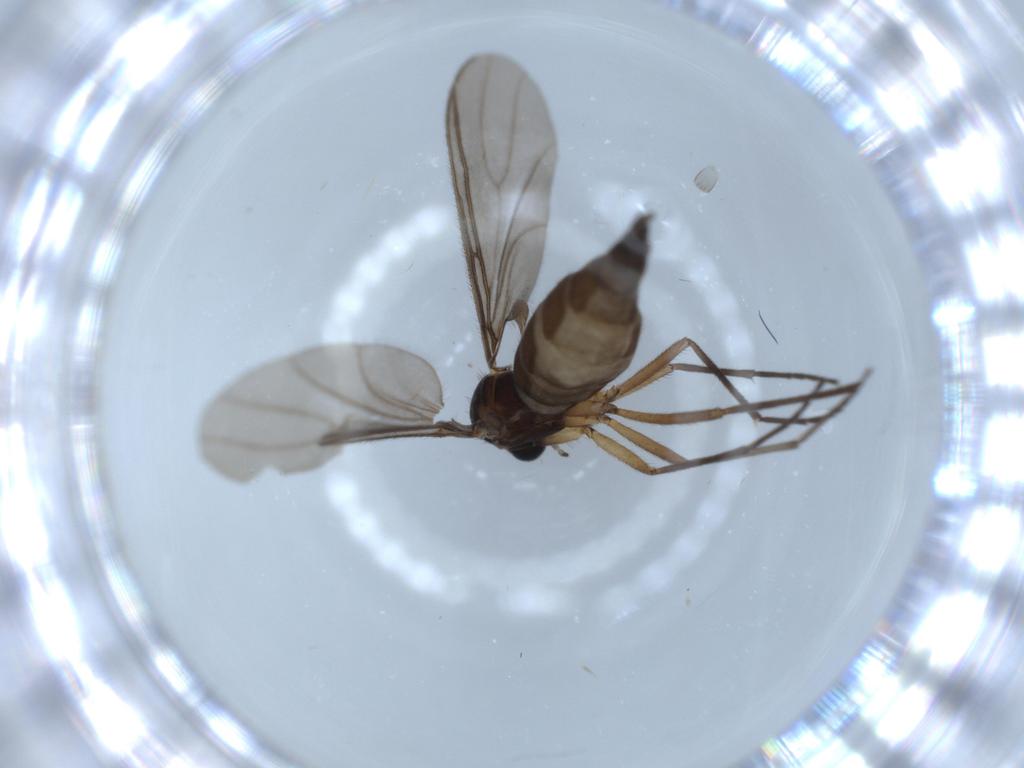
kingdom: Animalia
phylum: Arthropoda
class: Insecta
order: Diptera
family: Sciaridae
